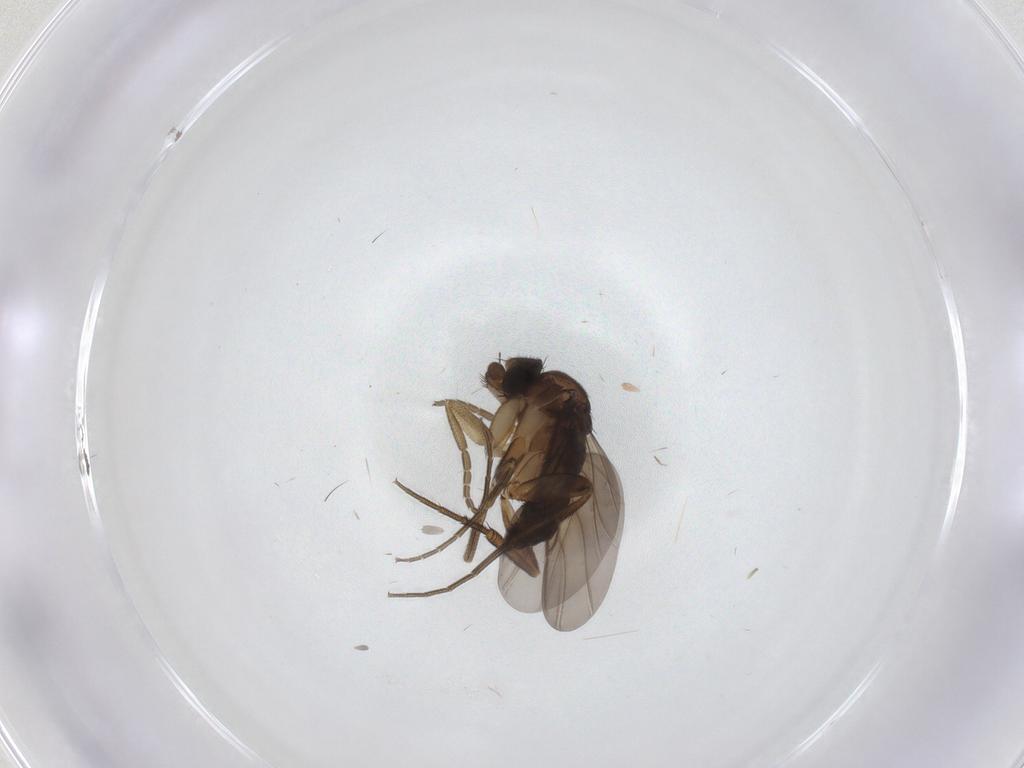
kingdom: Animalia
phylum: Arthropoda
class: Insecta
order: Diptera
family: Phoridae
